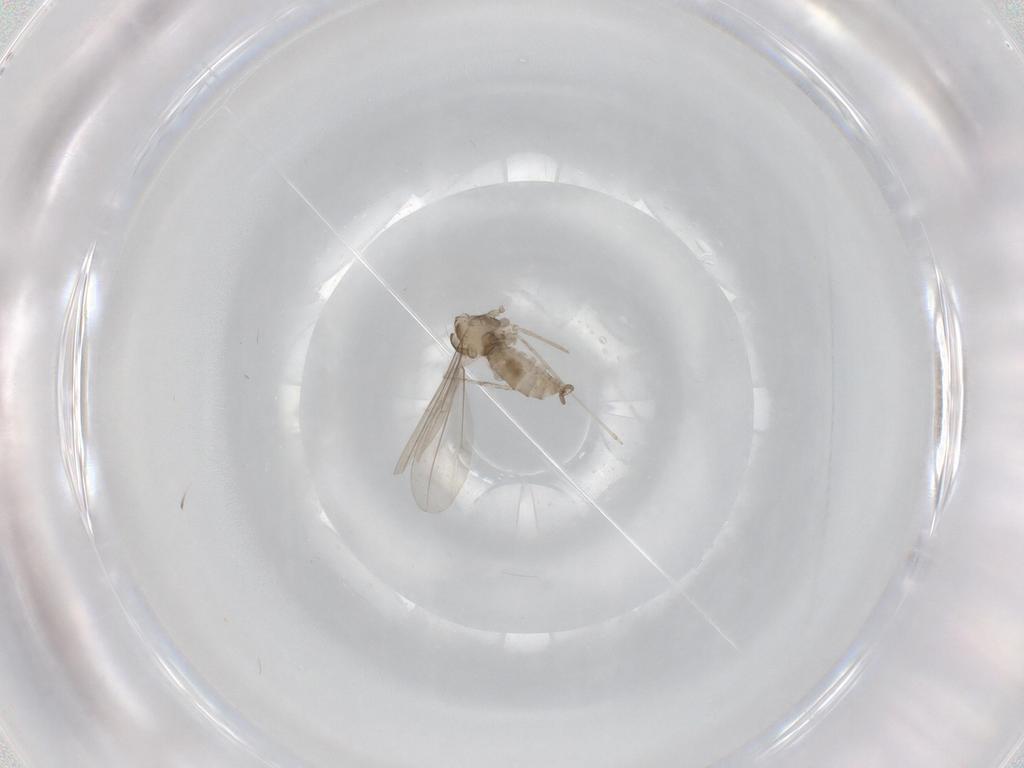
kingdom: Animalia
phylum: Arthropoda
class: Insecta
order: Diptera
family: Cecidomyiidae
